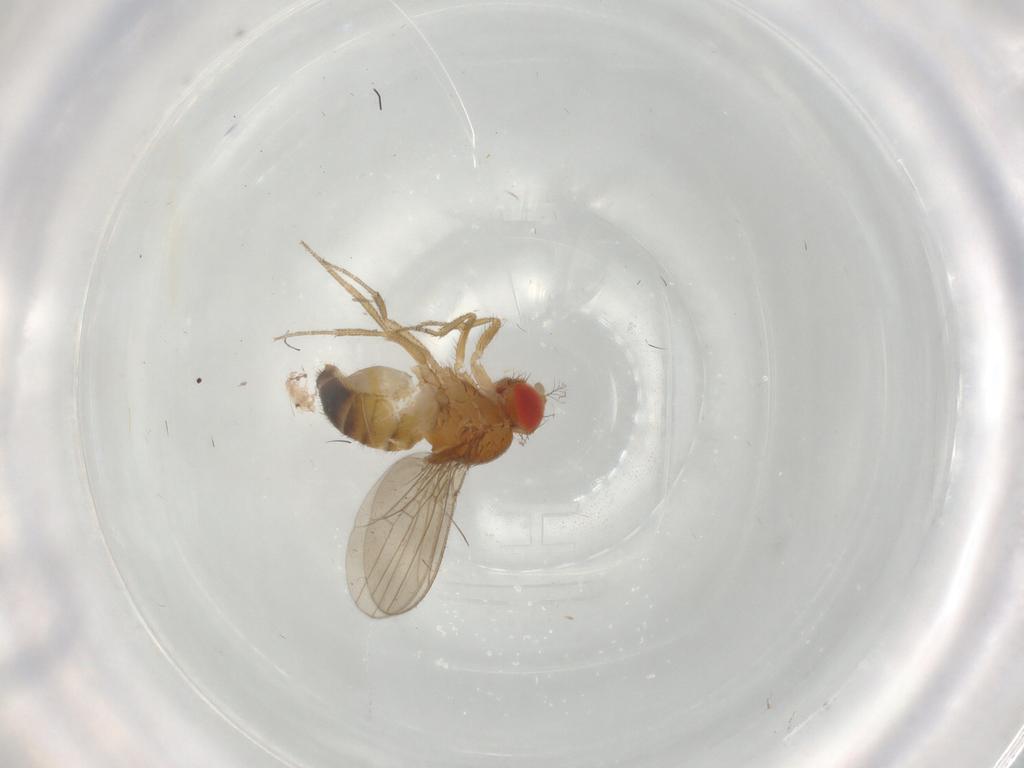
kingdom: Animalia
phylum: Arthropoda
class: Insecta
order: Diptera
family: Drosophilidae
